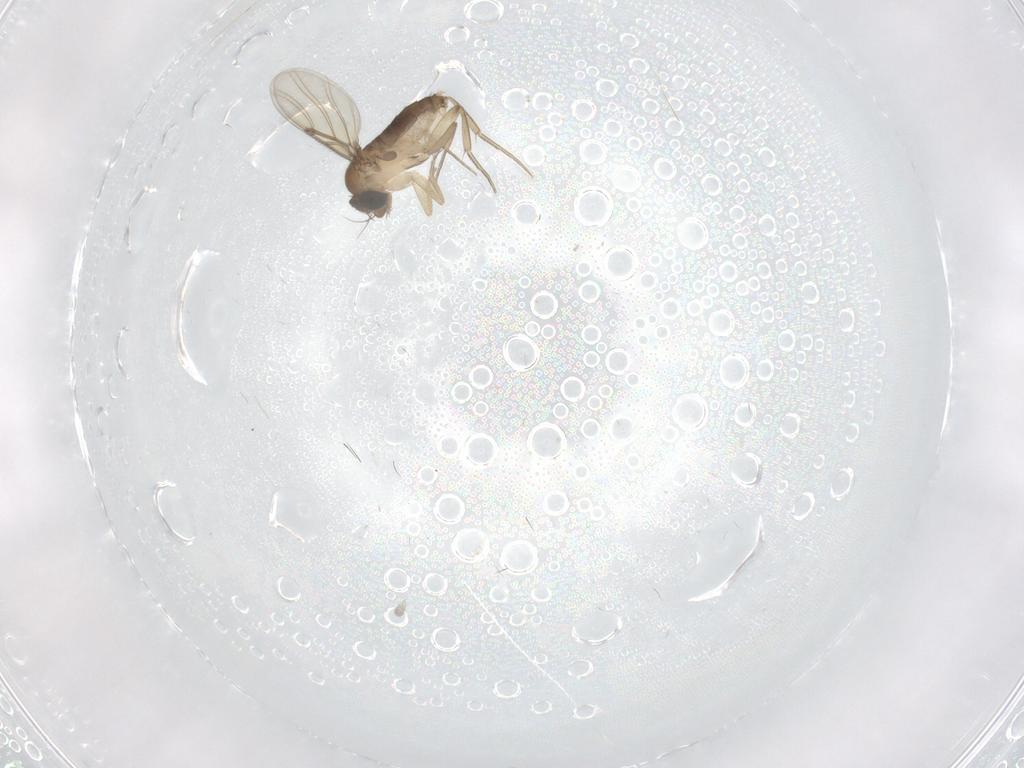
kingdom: Animalia
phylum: Arthropoda
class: Insecta
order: Diptera
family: Phoridae
